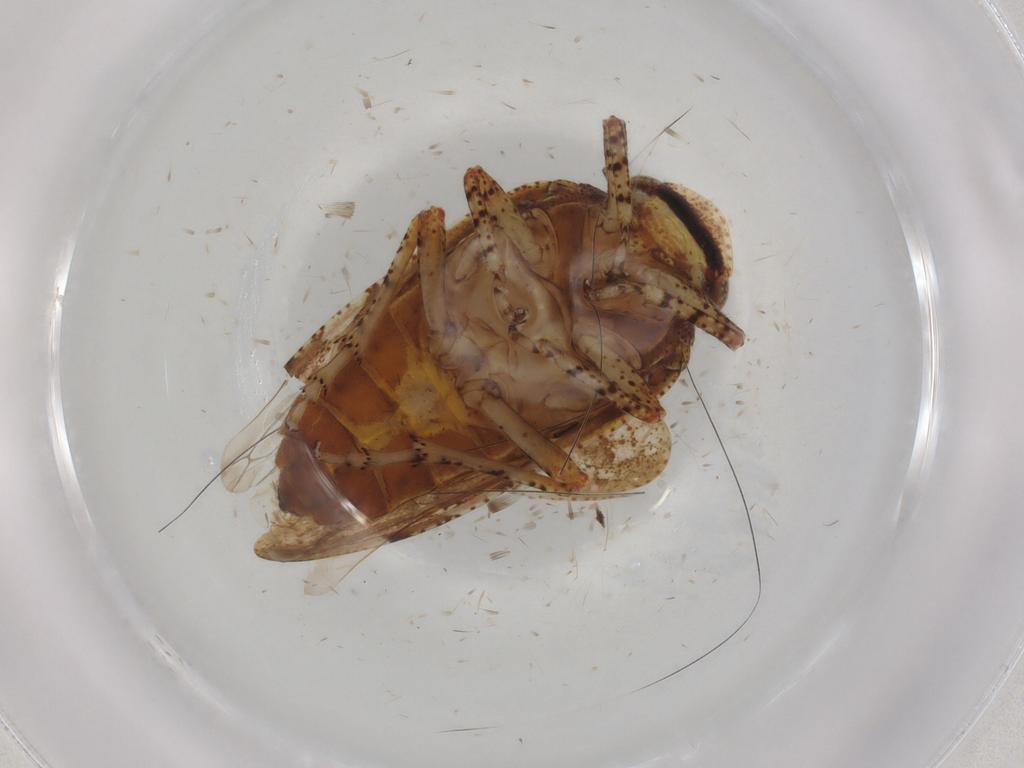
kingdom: Animalia
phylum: Arthropoda
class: Insecta
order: Hemiptera
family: Tettigometridae
